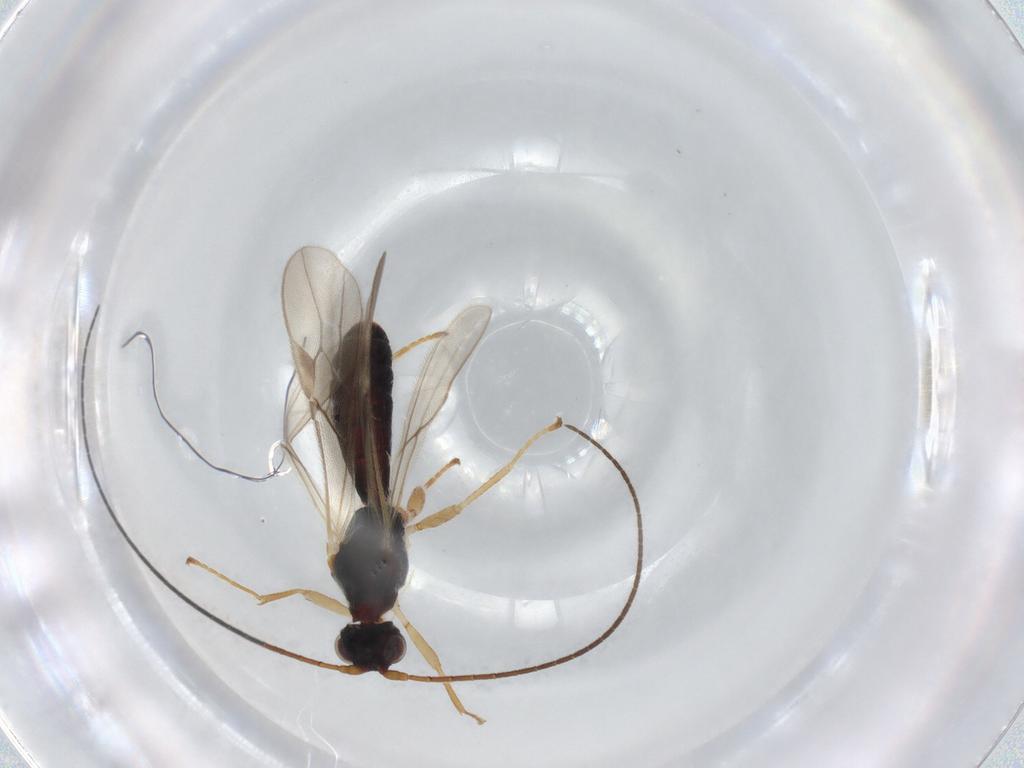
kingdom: Animalia
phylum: Arthropoda
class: Insecta
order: Hymenoptera
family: Braconidae
